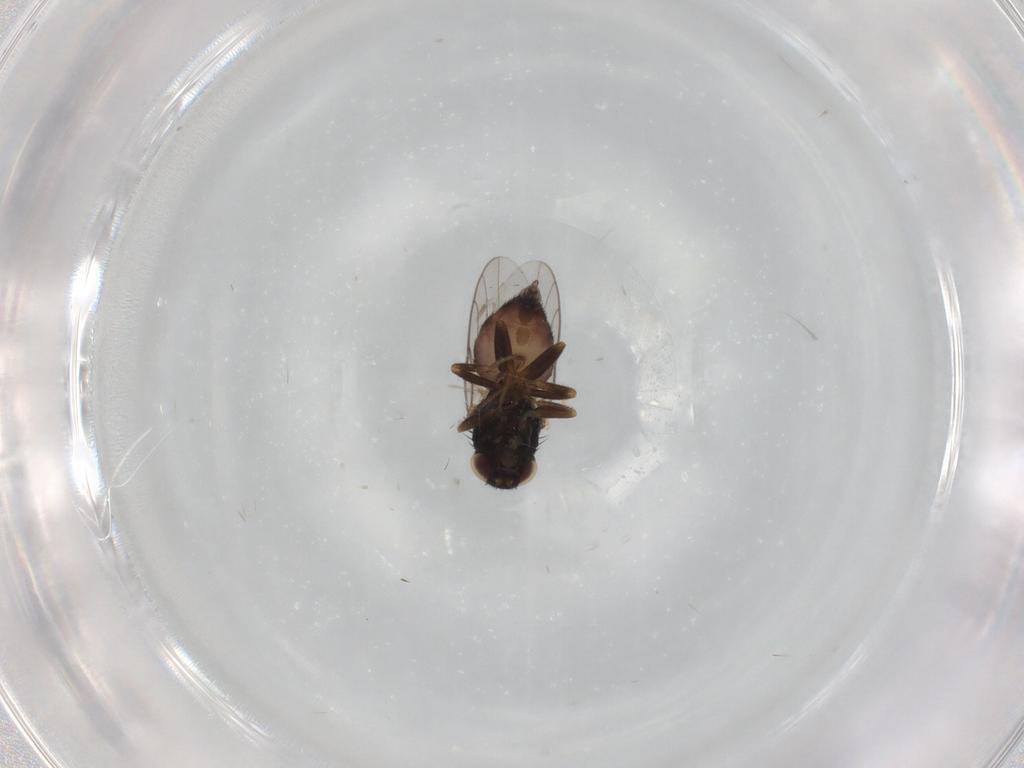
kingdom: Animalia
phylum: Arthropoda
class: Insecta
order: Diptera
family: Chloropidae
